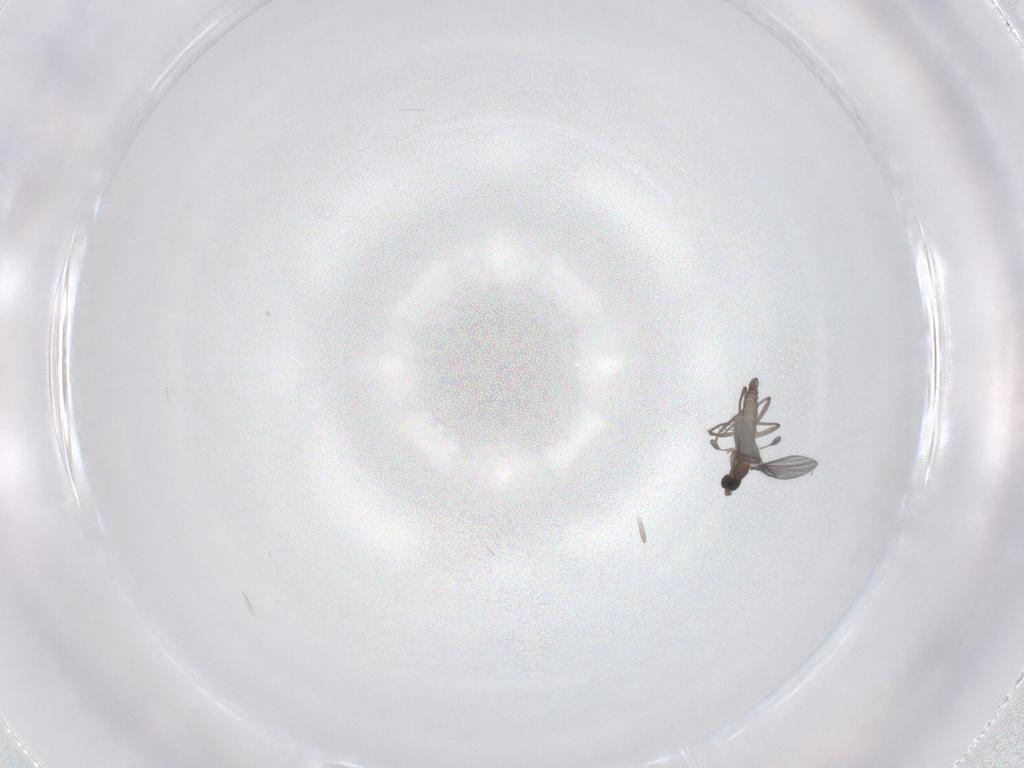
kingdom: Animalia
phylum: Arthropoda
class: Insecta
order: Diptera
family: Sciaridae
